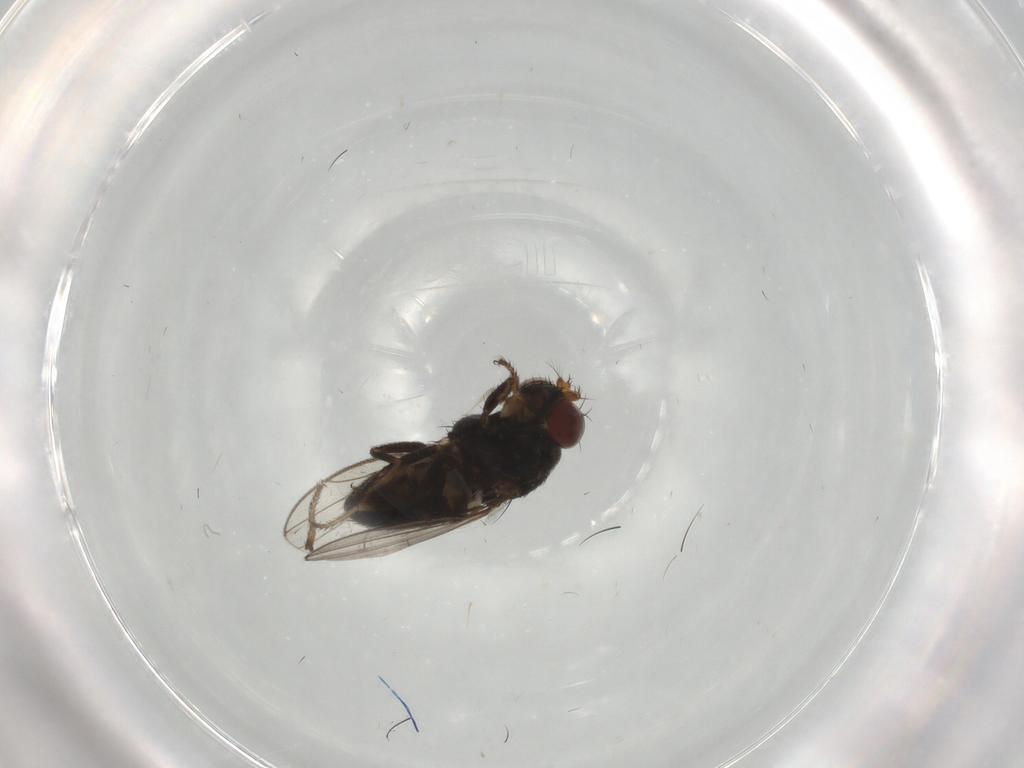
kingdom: Animalia
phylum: Arthropoda
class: Insecta
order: Diptera
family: Ephydridae
